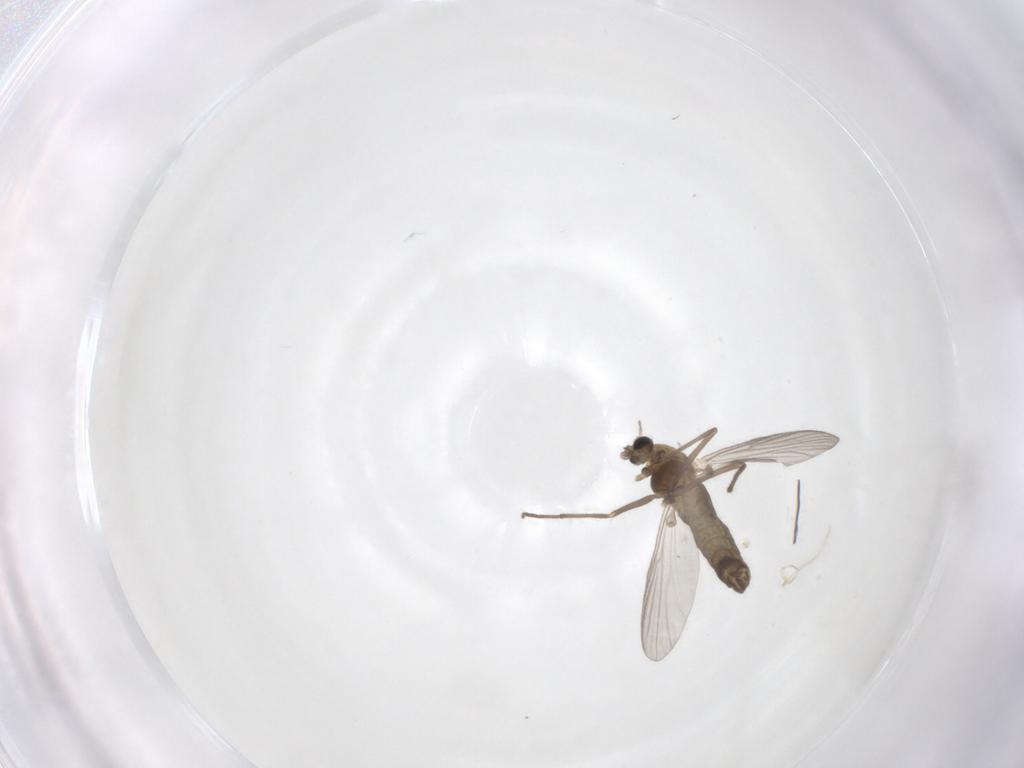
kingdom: Animalia
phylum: Arthropoda
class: Insecta
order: Diptera
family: Chironomidae
